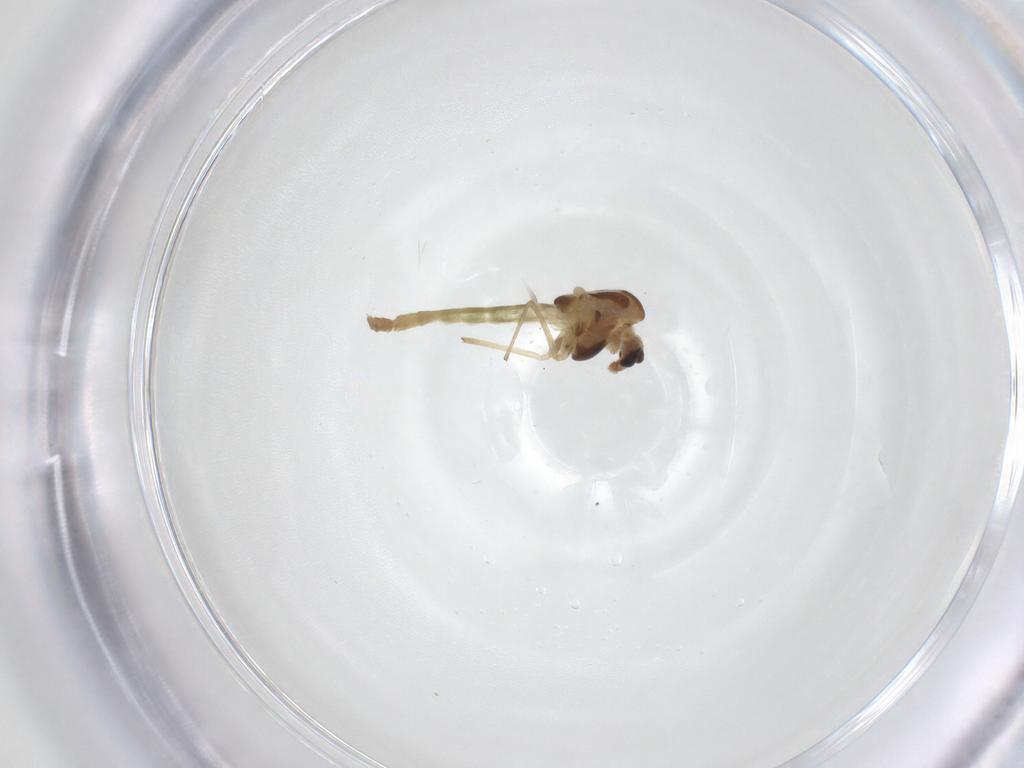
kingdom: Animalia
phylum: Arthropoda
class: Insecta
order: Diptera
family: Chironomidae
